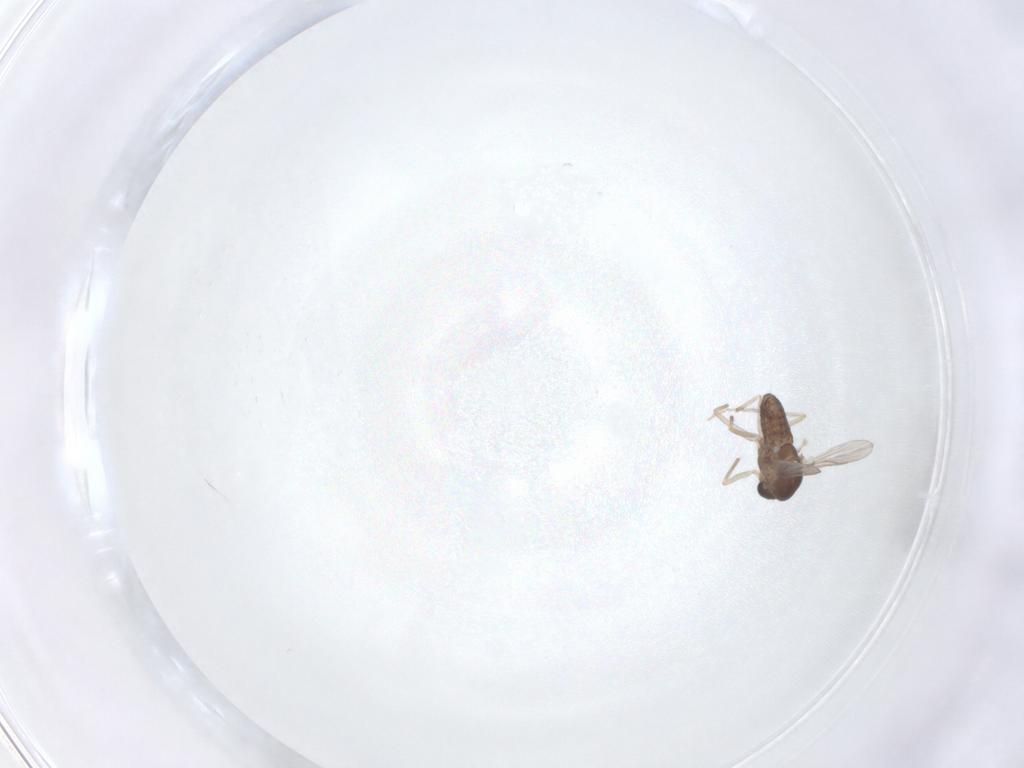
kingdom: Animalia
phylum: Arthropoda
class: Insecta
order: Diptera
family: Chironomidae
